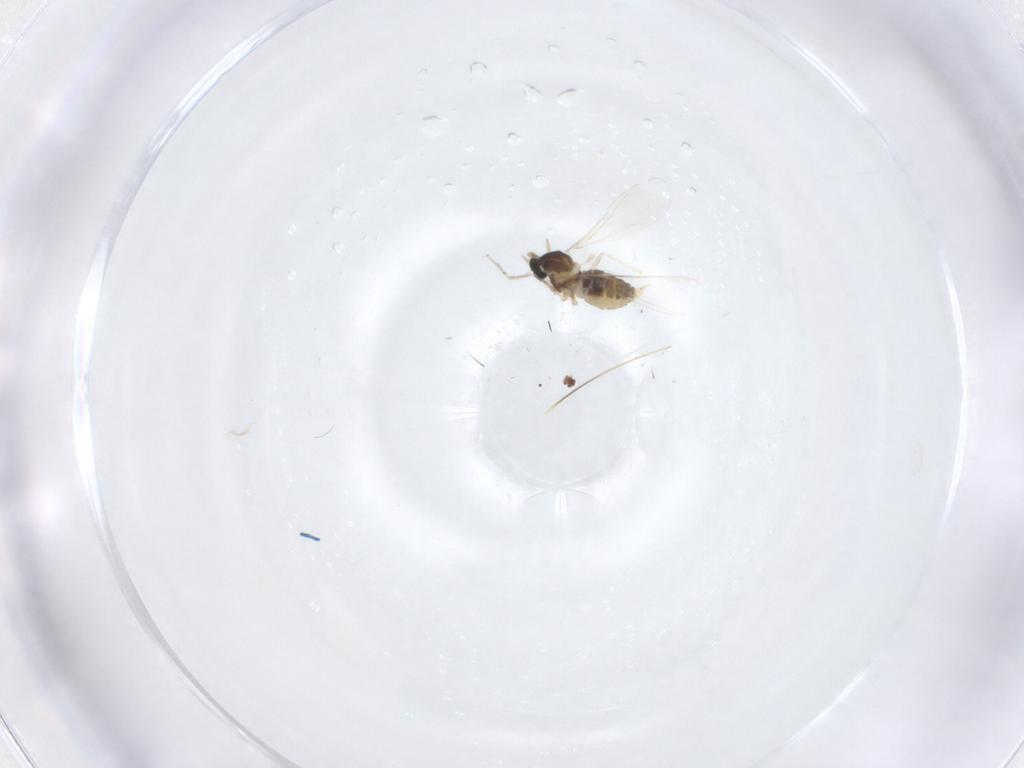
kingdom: Animalia
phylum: Arthropoda
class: Insecta
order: Diptera
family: Cecidomyiidae
